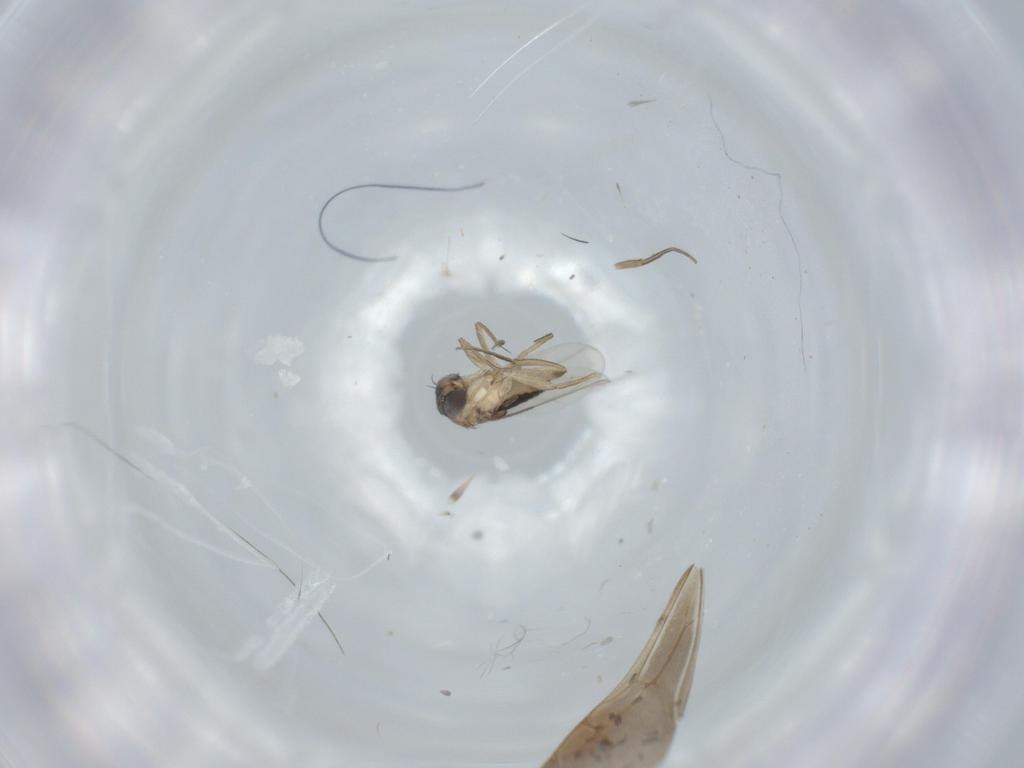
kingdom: Animalia
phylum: Arthropoda
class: Insecta
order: Diptera
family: Phoridae
